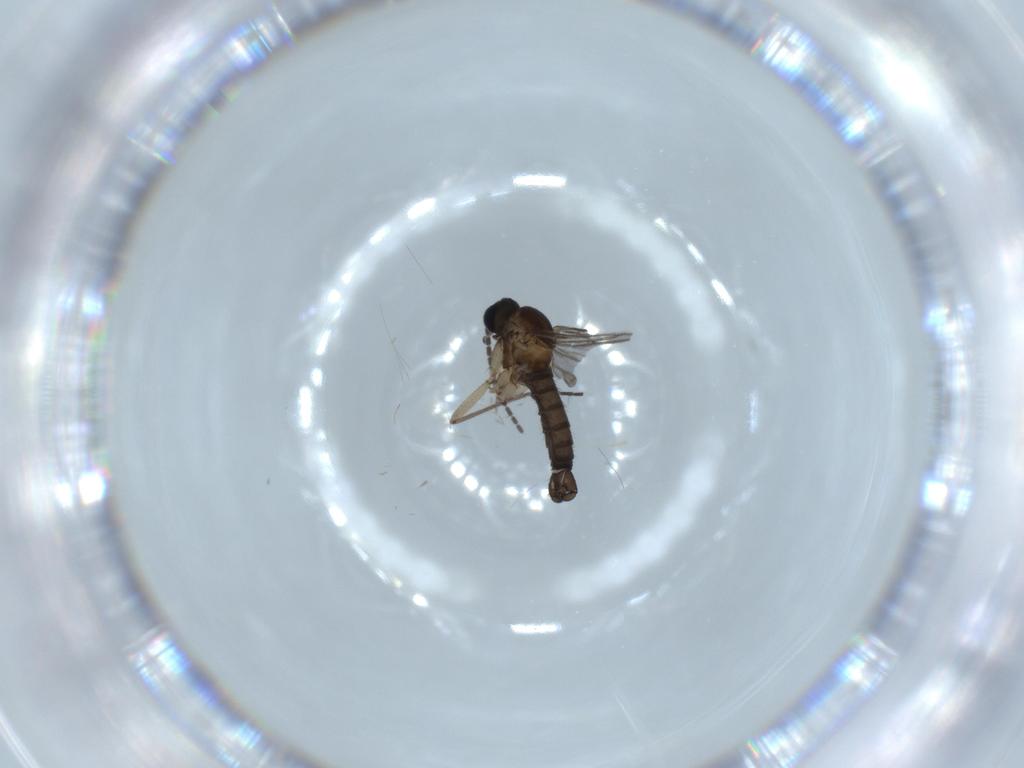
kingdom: Animalia
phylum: Arthropoda
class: Insecta
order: Diptera
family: Sciaridae
